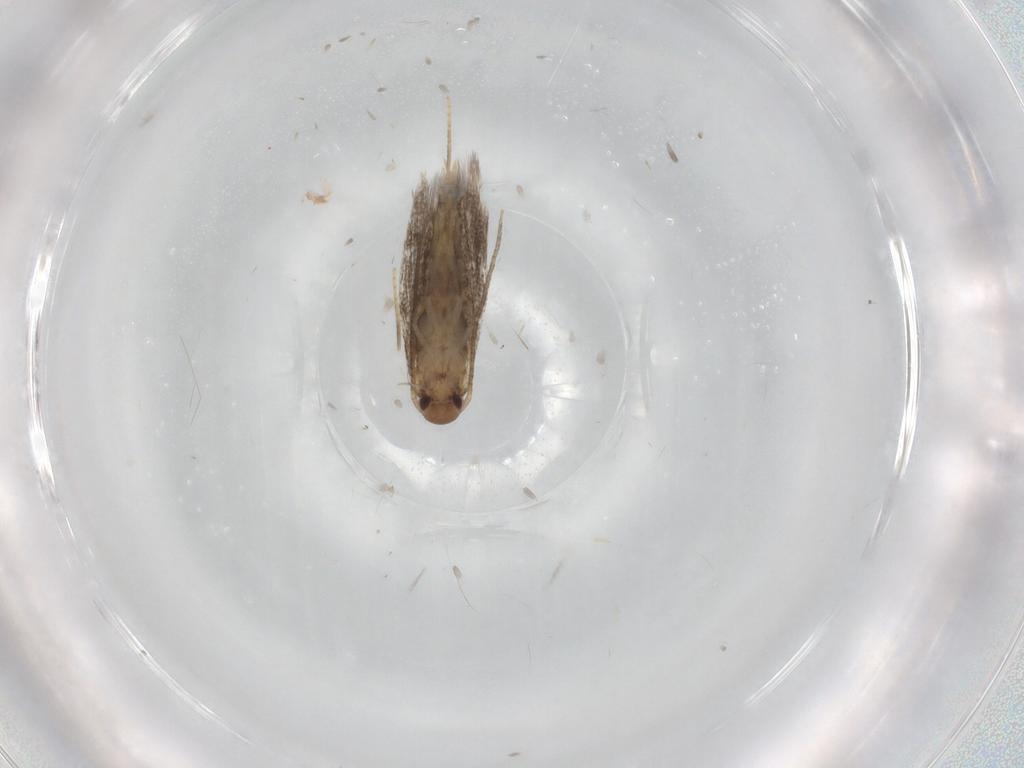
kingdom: Animalia
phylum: Arthropoda
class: Insecta
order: Lepidoptera
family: Elachistidae
